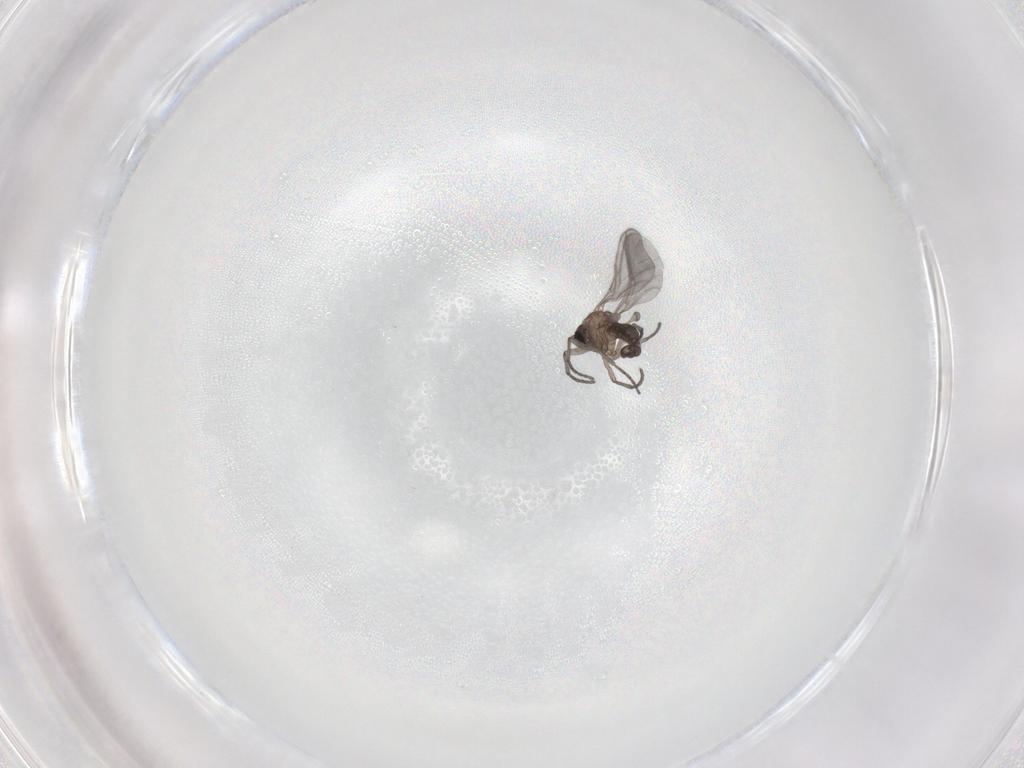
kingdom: Animalia
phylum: Arthropoda
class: Insecta
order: Diptera
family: Sciaridae
